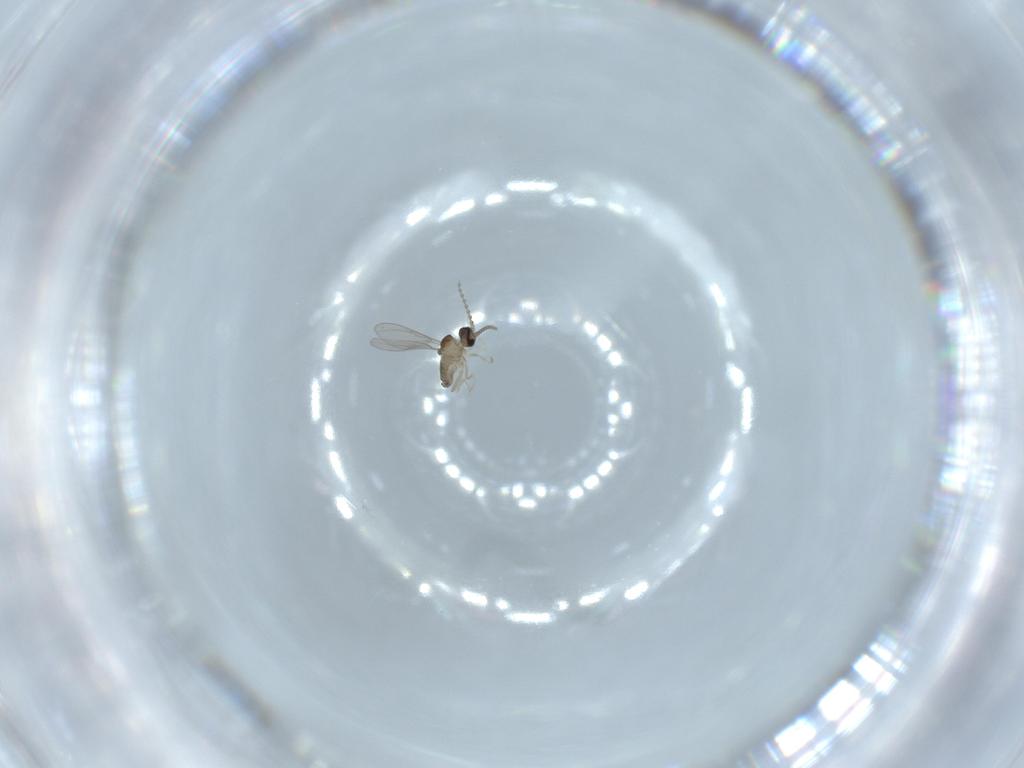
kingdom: Animalia
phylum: Arthropoda
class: Insecta
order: Diptera
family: Cecidomyiidae
